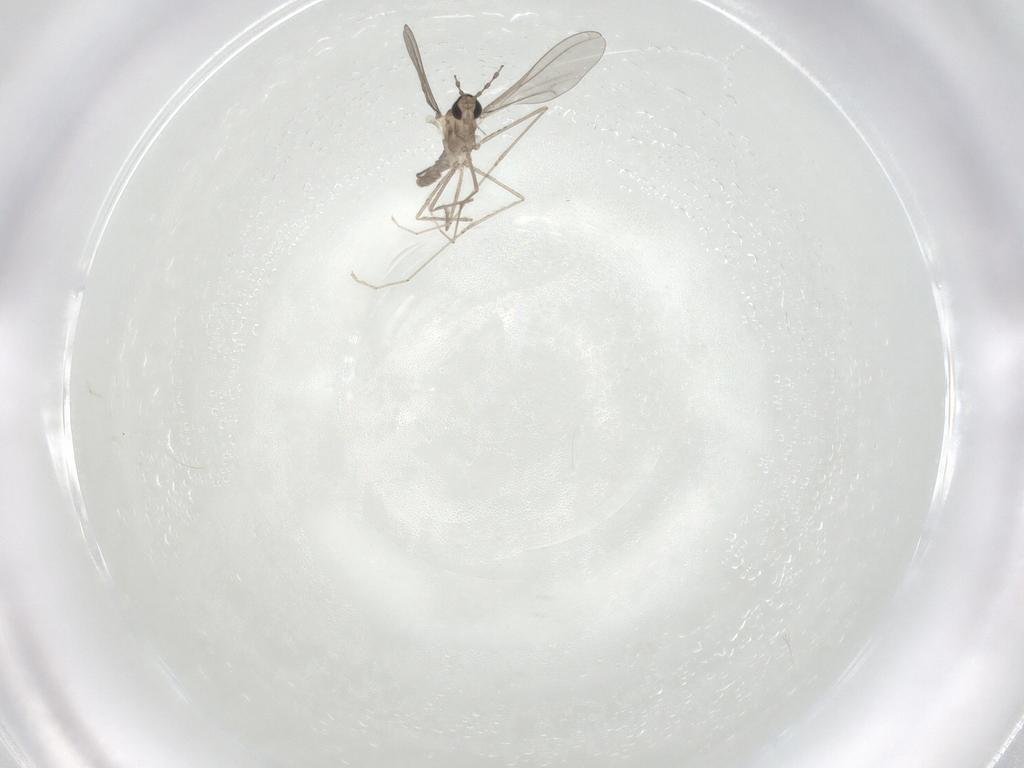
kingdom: Animalia
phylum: Arthropoda
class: Insecta
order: Diptera
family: Cecidomyiidae
